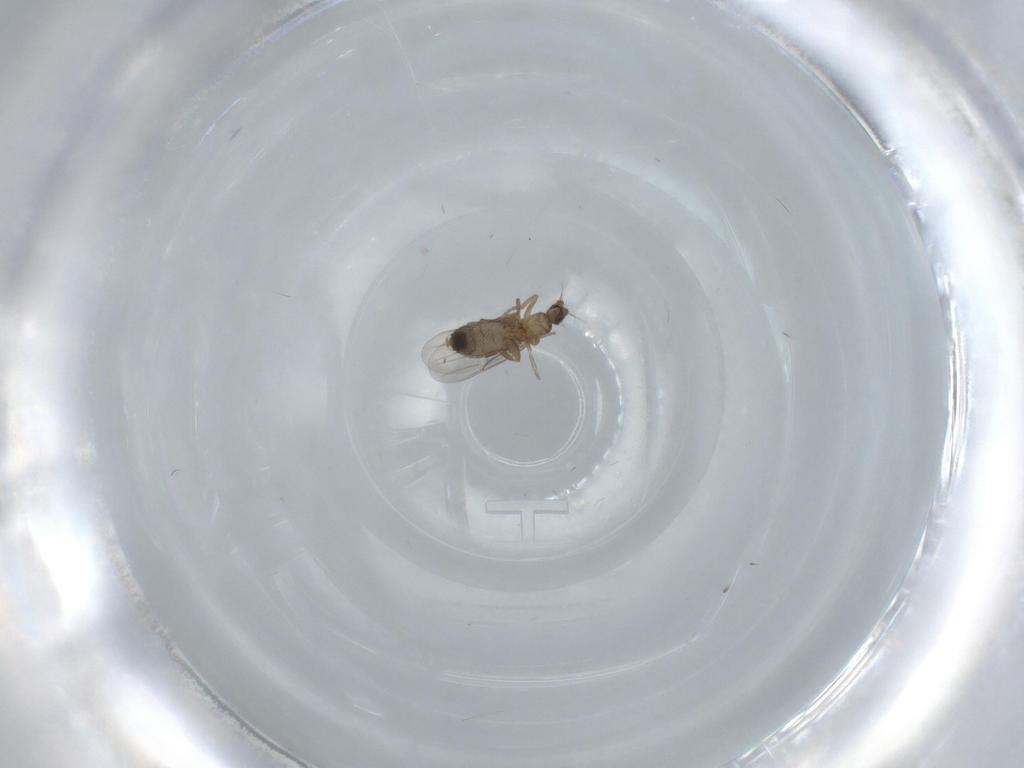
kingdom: Animalia
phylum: Arthropoda
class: Insecta
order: Diptera
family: Phoridae
